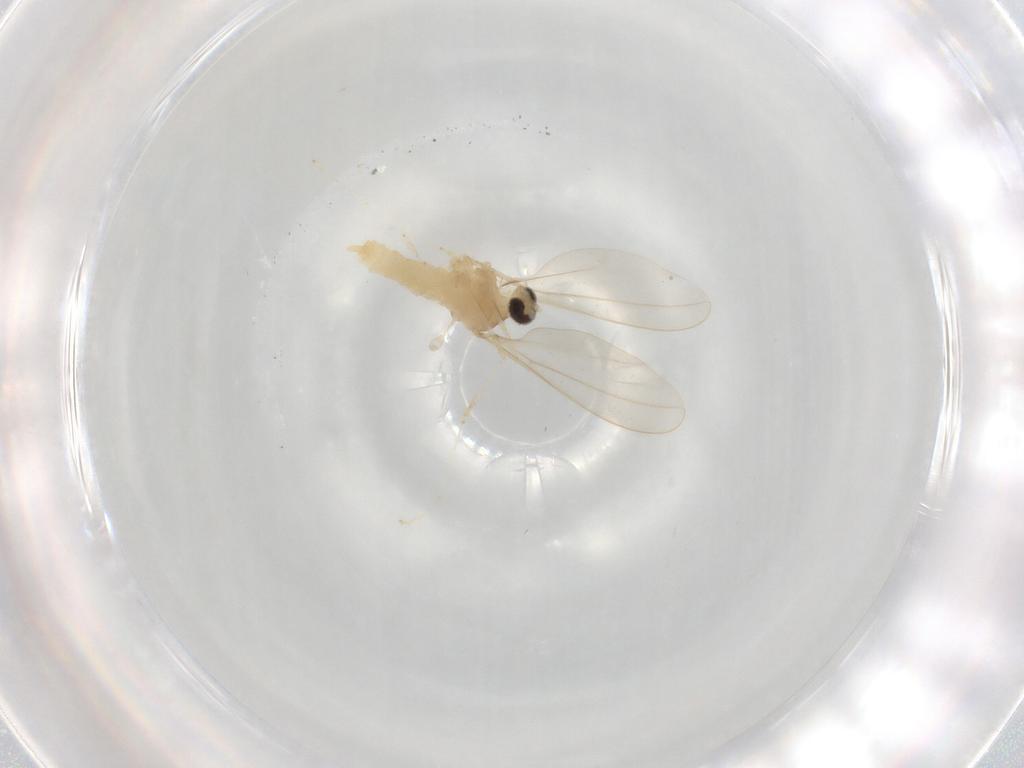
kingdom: Animalia
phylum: Arthropoda
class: Insecta
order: Diptera
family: Cecidomyiidae
